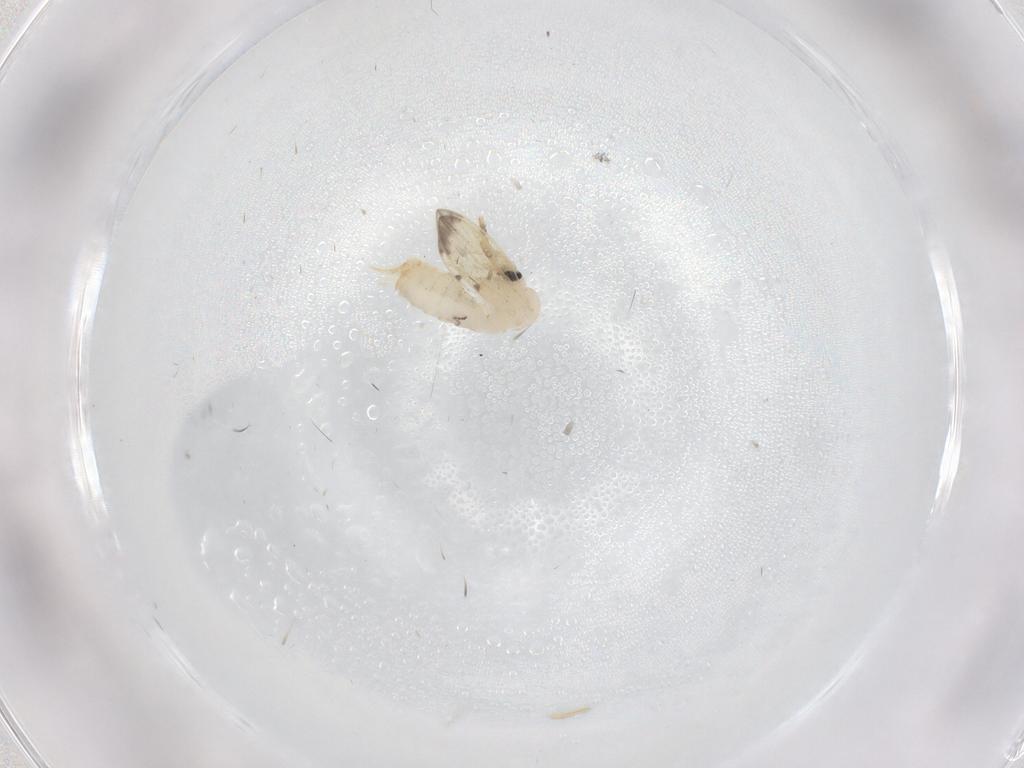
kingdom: Animalia
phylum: Arthropoda
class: Insecta
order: Diptera
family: Psychodidae
